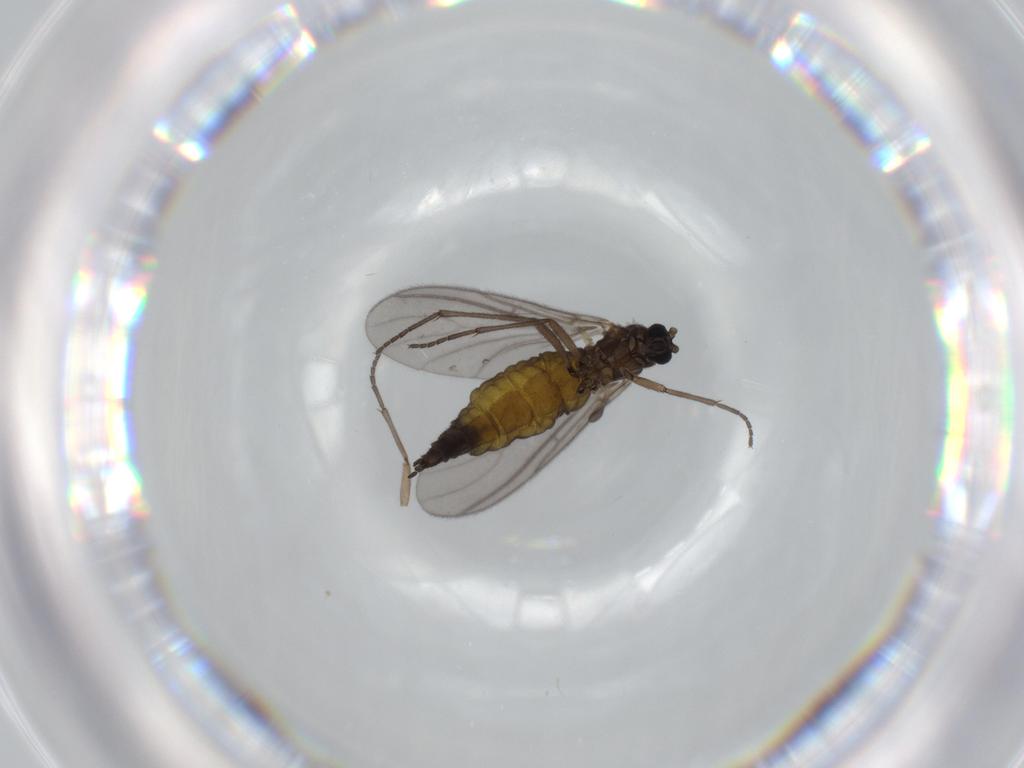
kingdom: Animalia
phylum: Arthropoda
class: Insecta
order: Diptera
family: Sciaridae
